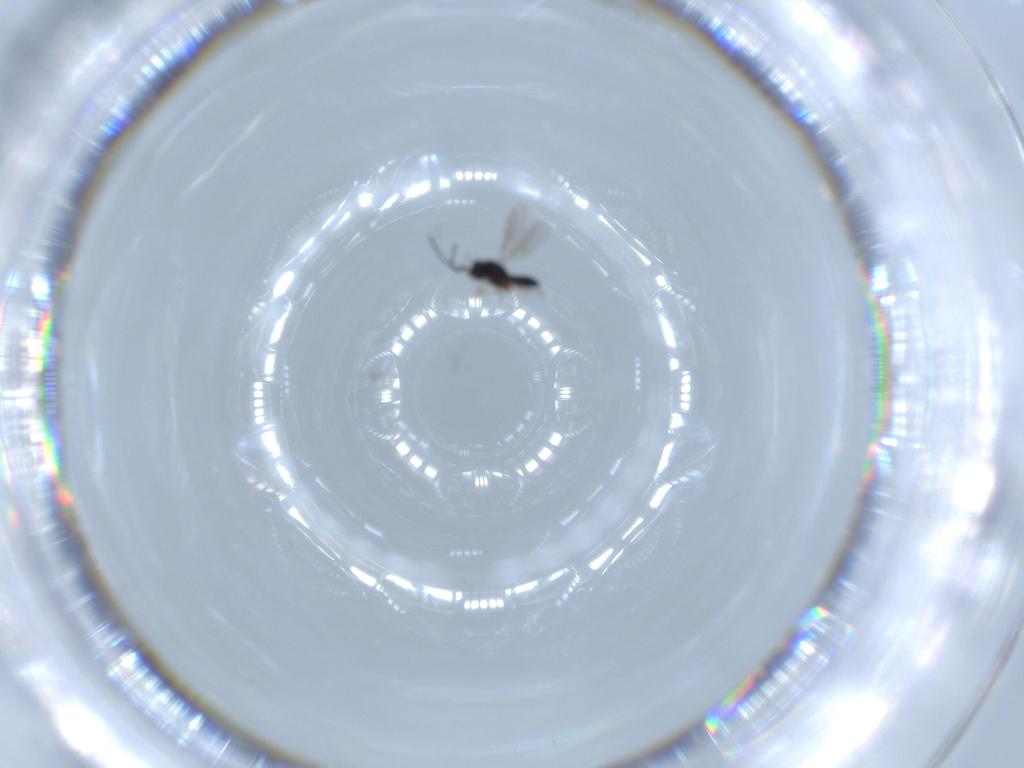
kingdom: Animalia
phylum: Arthropoda
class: Insecta
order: Hymenoptera
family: Scelionidae
